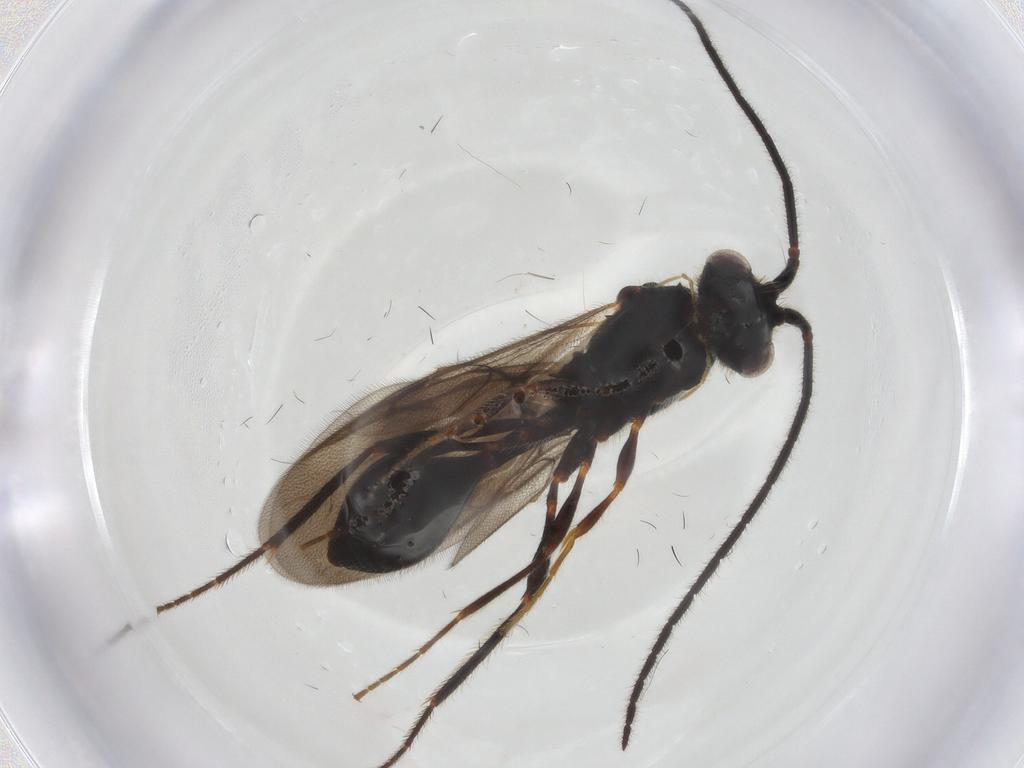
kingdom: Animalia
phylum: Arthropoda
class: Insecta
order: Hymenoptera
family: Diapriidae
